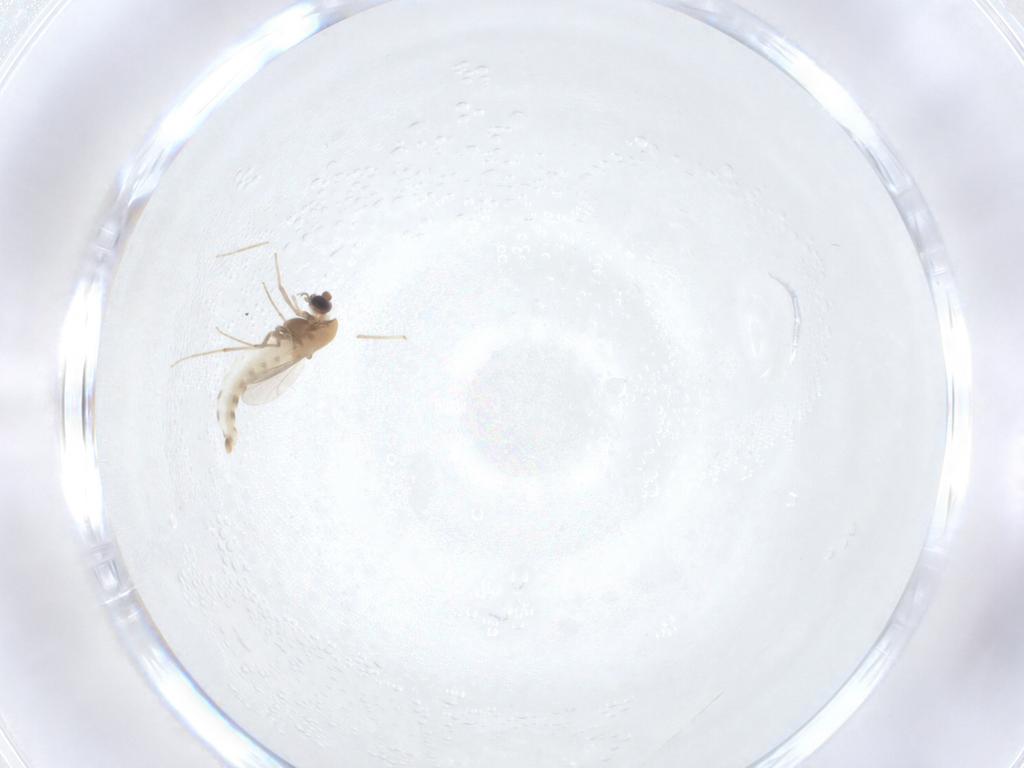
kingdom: Animalia
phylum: Arthropoda
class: Insecta
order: Diptera
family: Chironomidae
